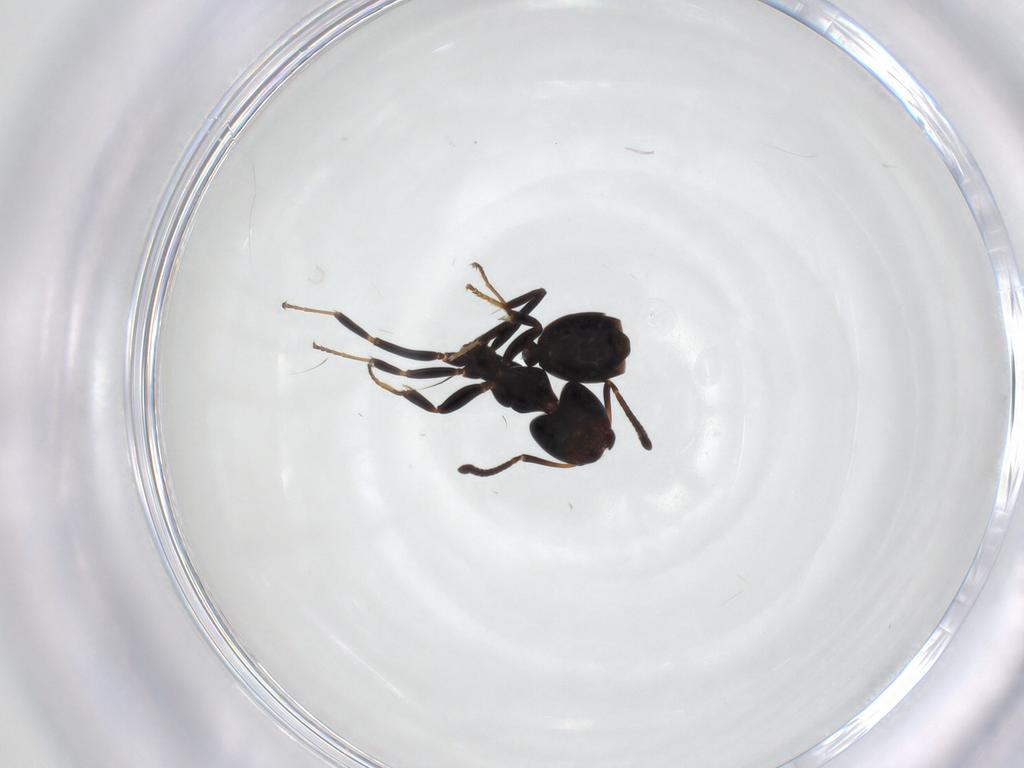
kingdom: Animalia
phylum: Arthropoda
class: Insecta
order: Hymenoptera
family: Formicidae
